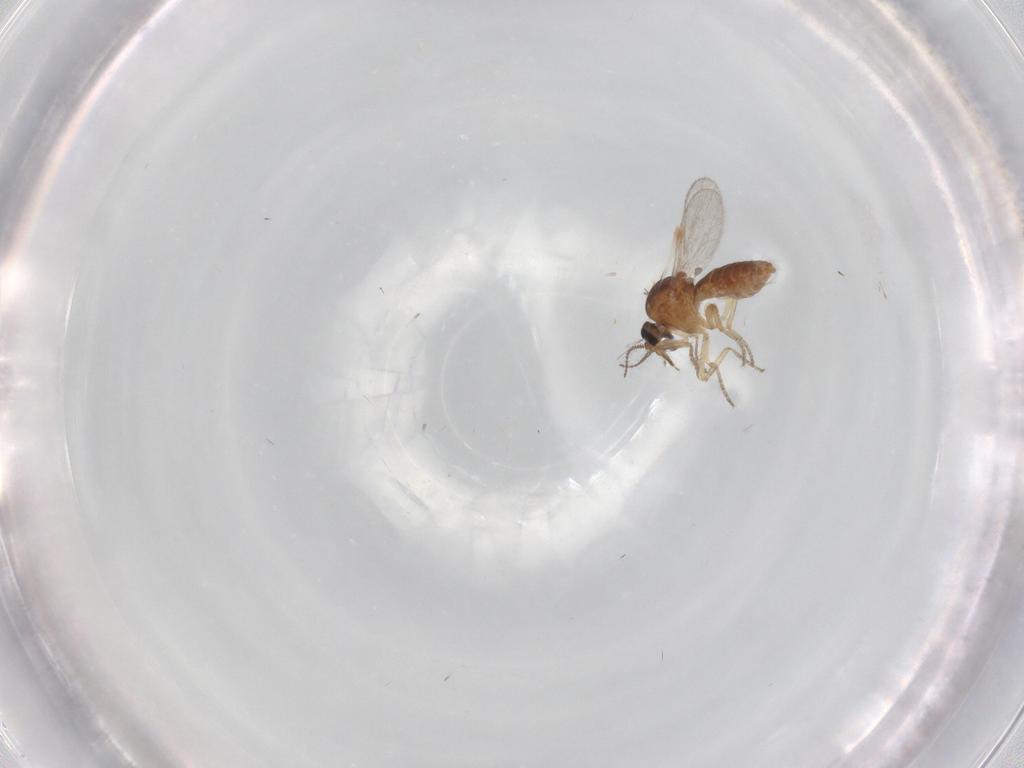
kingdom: Animalia
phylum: Arthropoda
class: Insecta
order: Diptera
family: Ceratopogonidae
